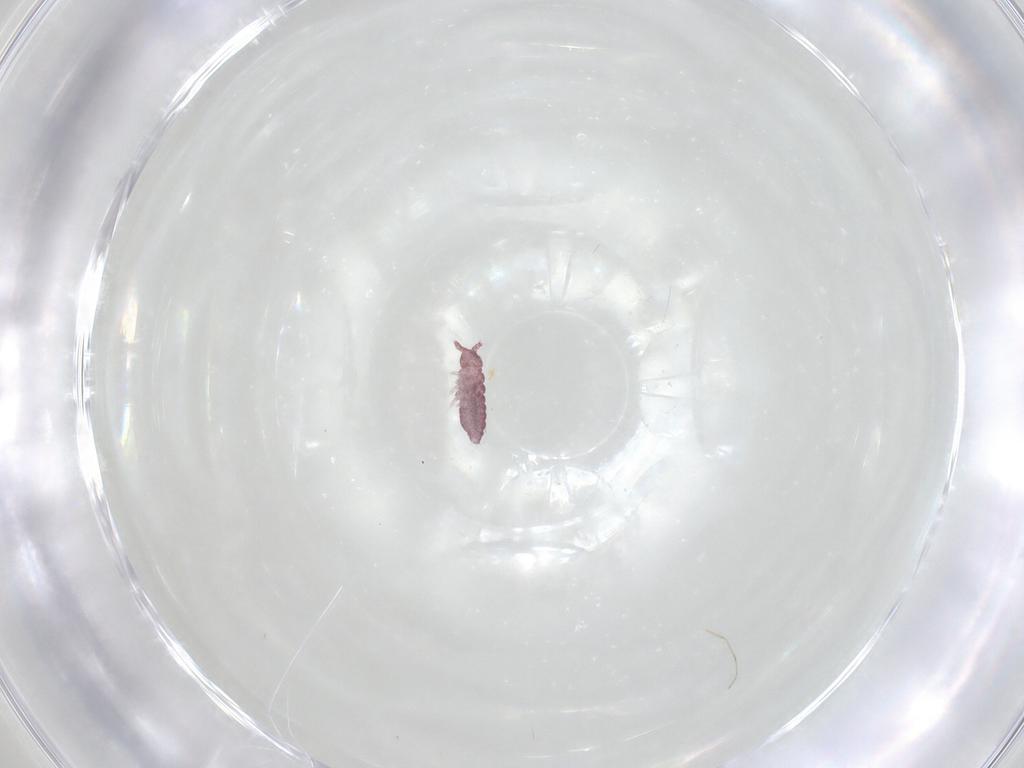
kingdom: Animalia
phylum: Arthropoda
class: Collembola
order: Poduromorpha
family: Hypogastruridae
